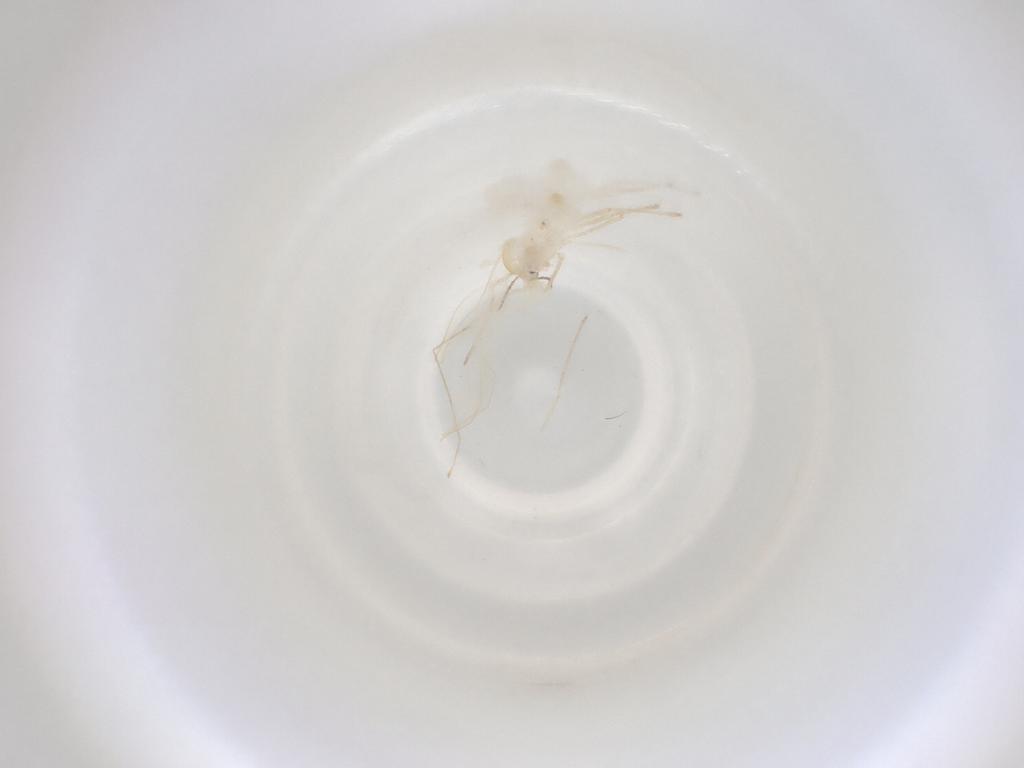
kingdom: Animalia
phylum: Arthropoda
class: Insecta
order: Diptera
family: Cecidomyiidae
